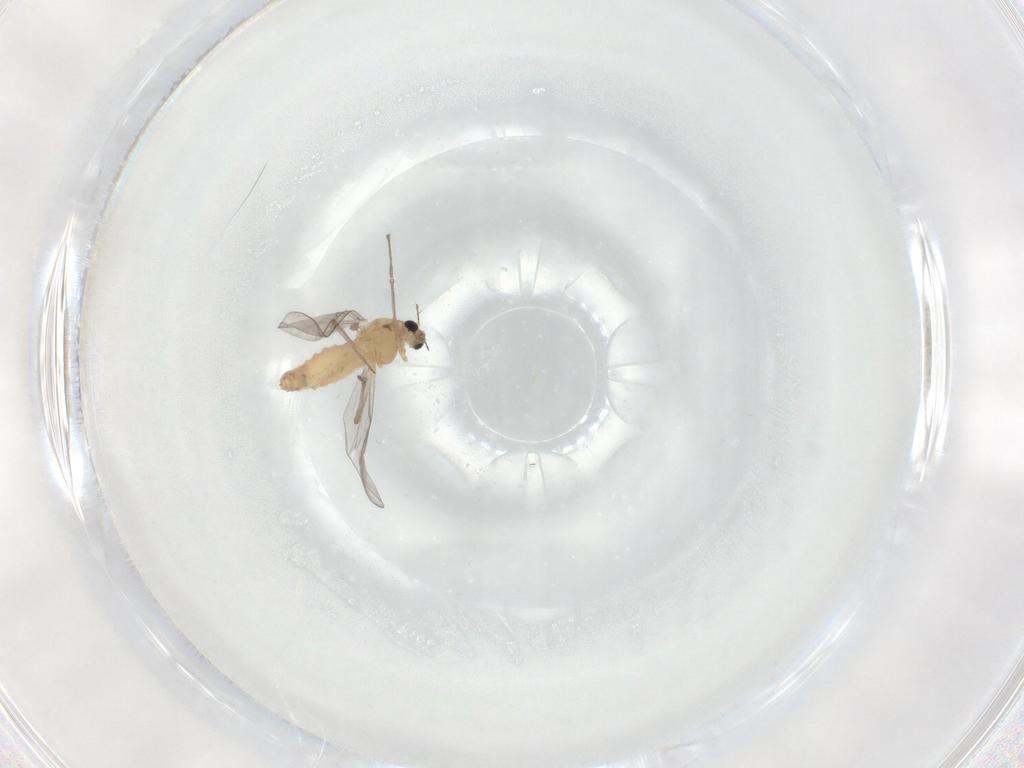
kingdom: Animalia
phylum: Arthropoda
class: Insecta
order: Diptera
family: Chironomidae
